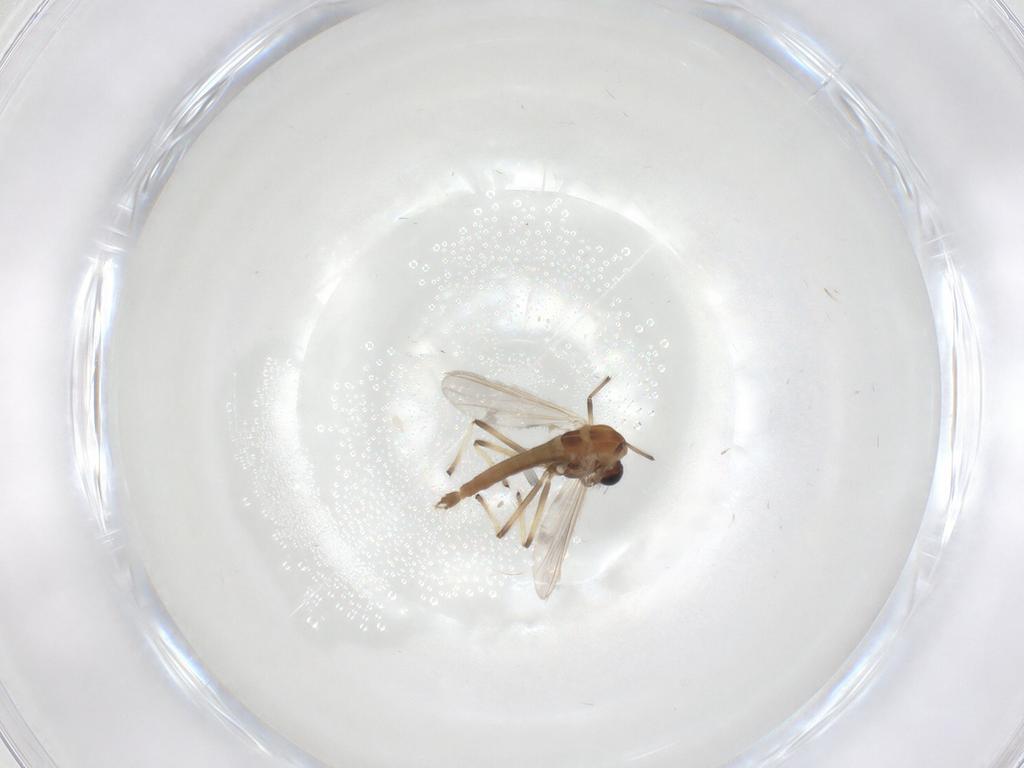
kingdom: Animalia
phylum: Arthropoda
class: Insecta
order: Diptera
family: Chironomidae
